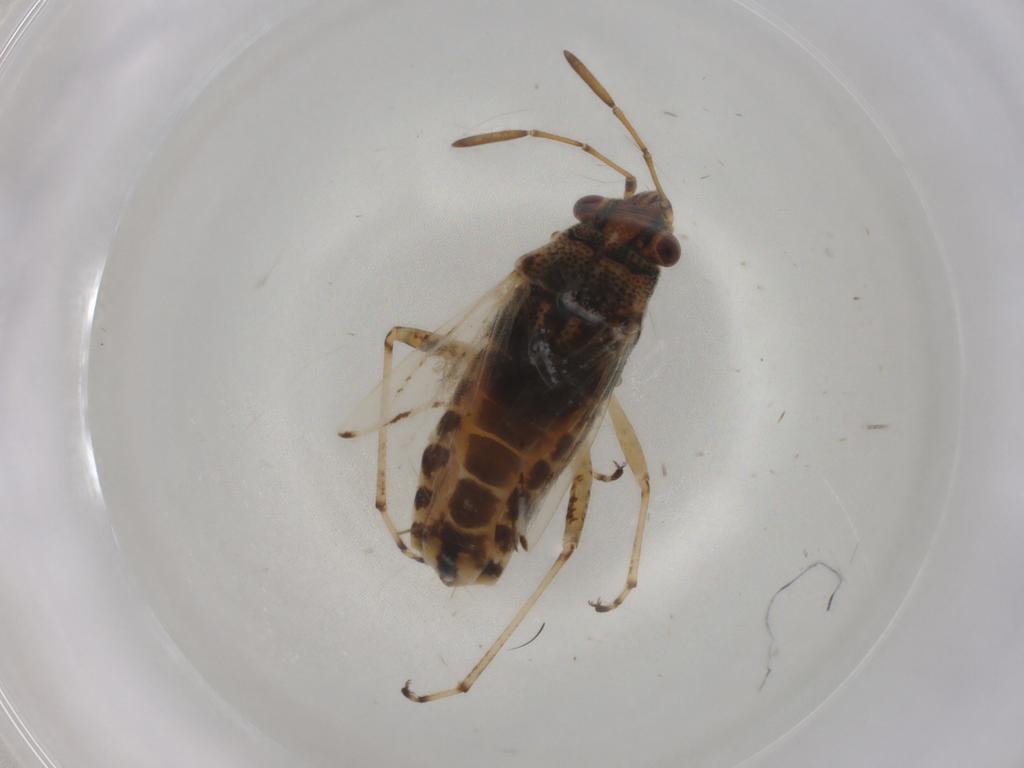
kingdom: Animalia
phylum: Arthropoda
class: Insecta
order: Hemiptera
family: Lygaeidae
